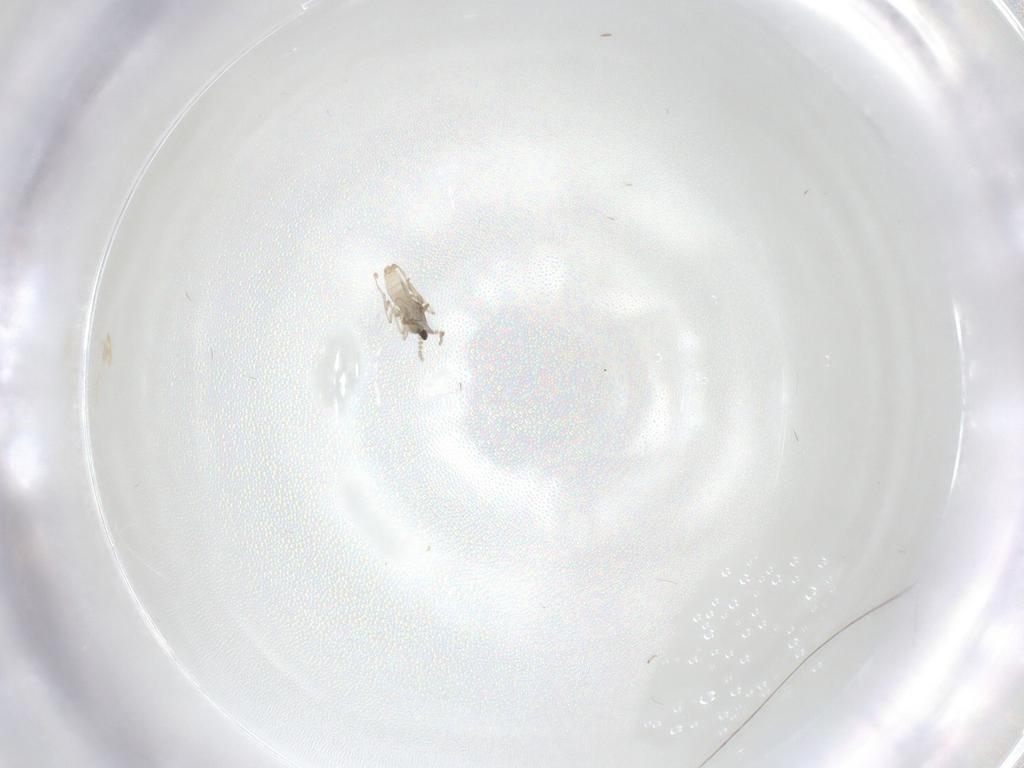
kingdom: Animalia
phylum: Arthropoda
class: Insecta
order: Diptera
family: Cecidomyiidae
